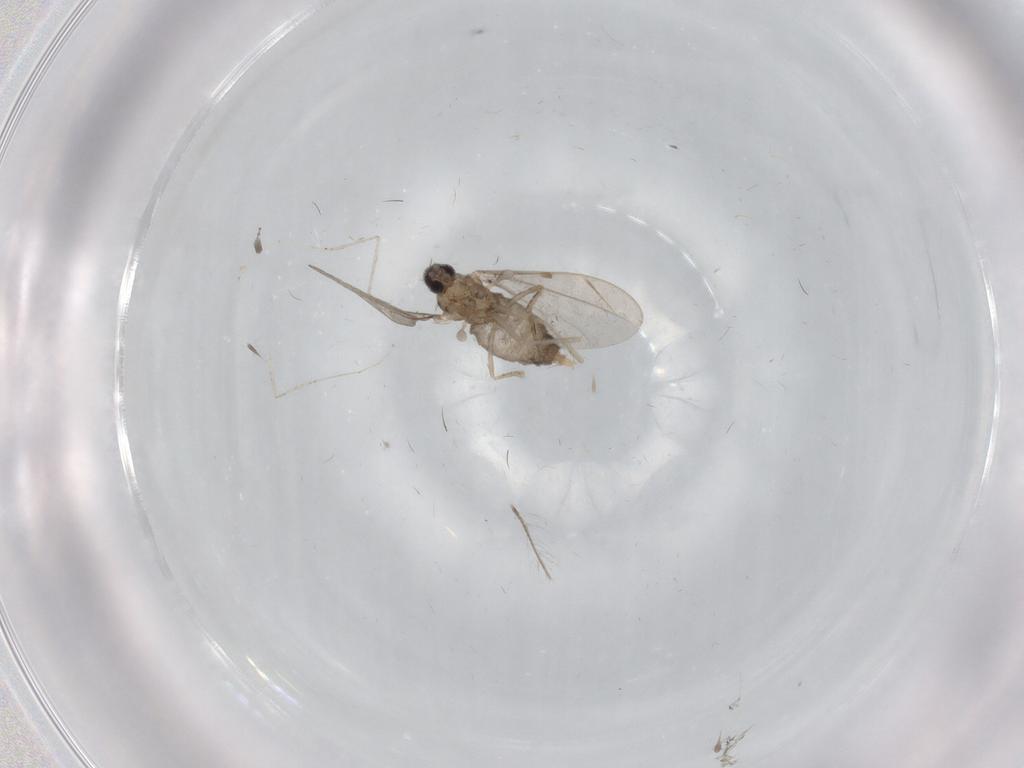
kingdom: Animalia
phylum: Arthropoda
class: Insecta
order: Diptera
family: Cecidomyiidae
